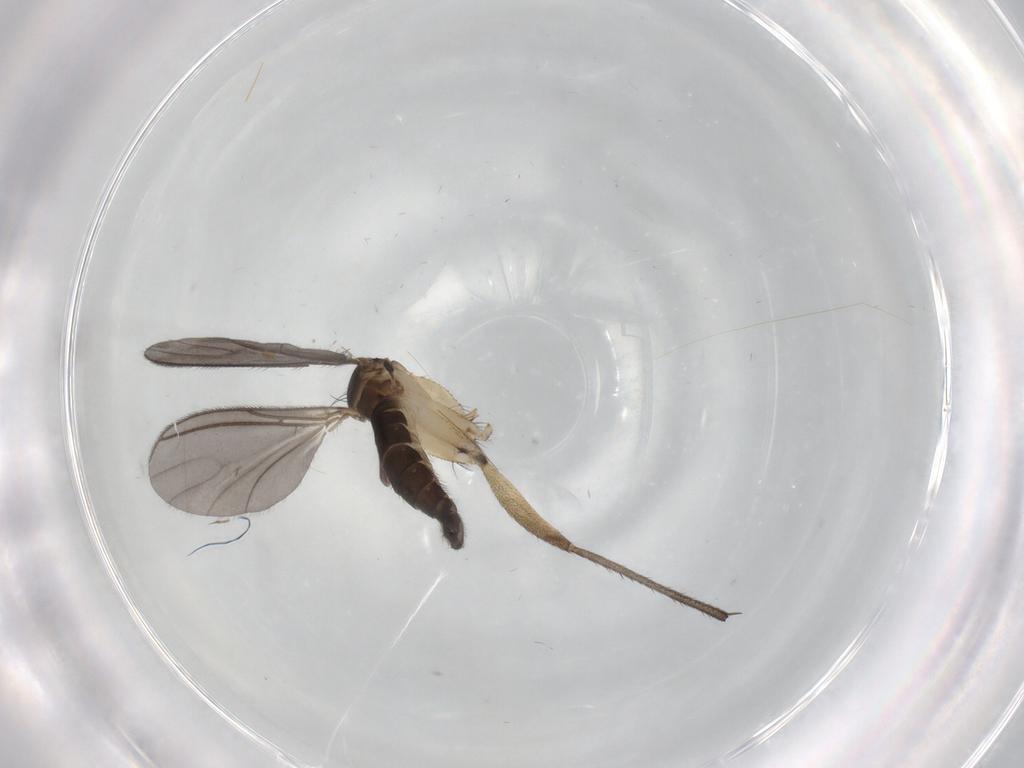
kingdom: Animalia
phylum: Arthropoda
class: Insecta
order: Diptera
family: Sciaridae
